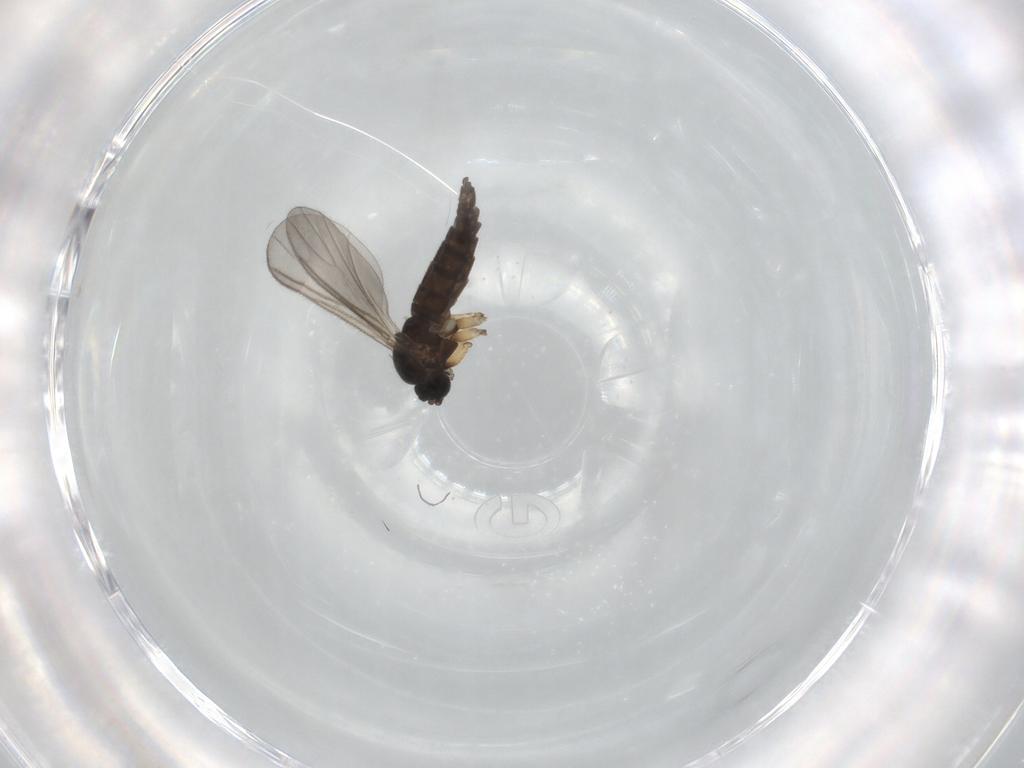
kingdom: Animalia
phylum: Arthropoda
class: Insecta
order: Diptera
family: Sciaridae
